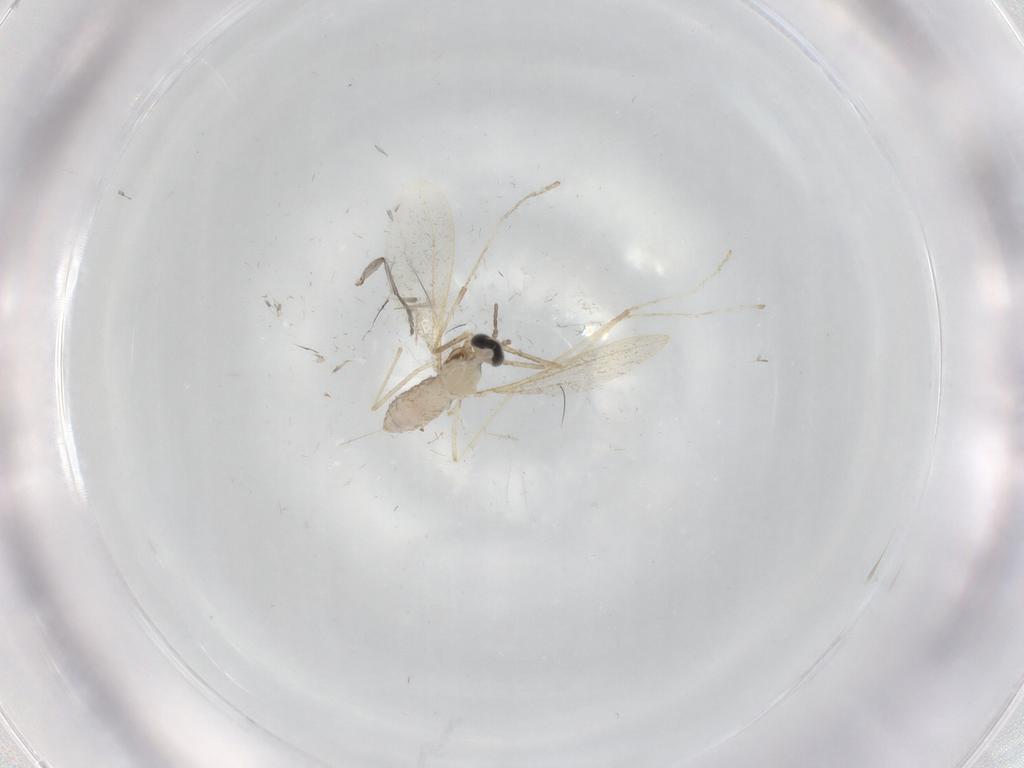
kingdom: Animalia
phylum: Arthropoda
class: Insecta
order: Diptera
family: Cecidomyiidae
